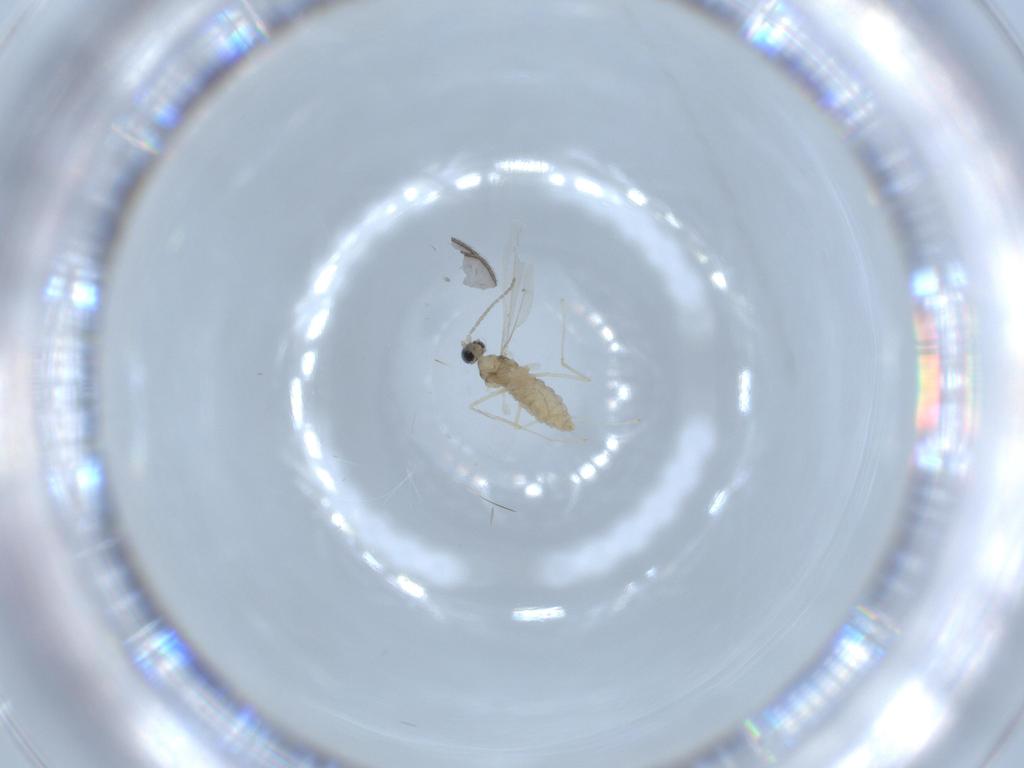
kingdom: Animalia
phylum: Arthropoda
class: Insecta
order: Diptera
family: Cecidomyiidae
